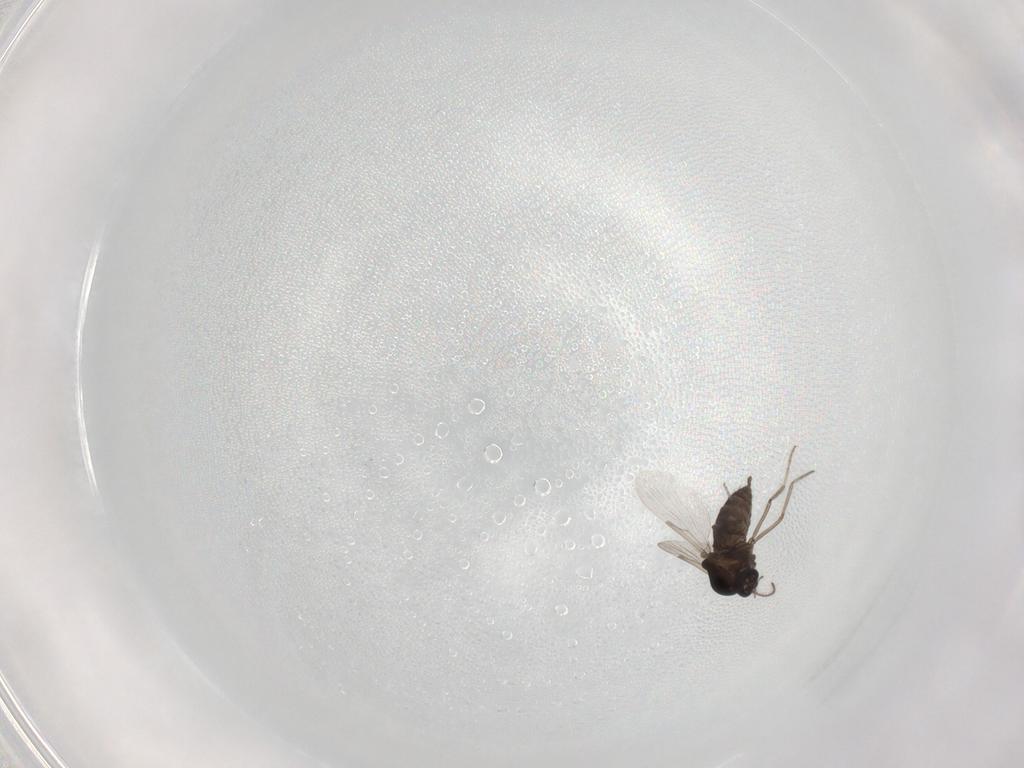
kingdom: Animalia
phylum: Arthropoda
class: Insecta
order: Diptera
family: Ceratopogonidae
